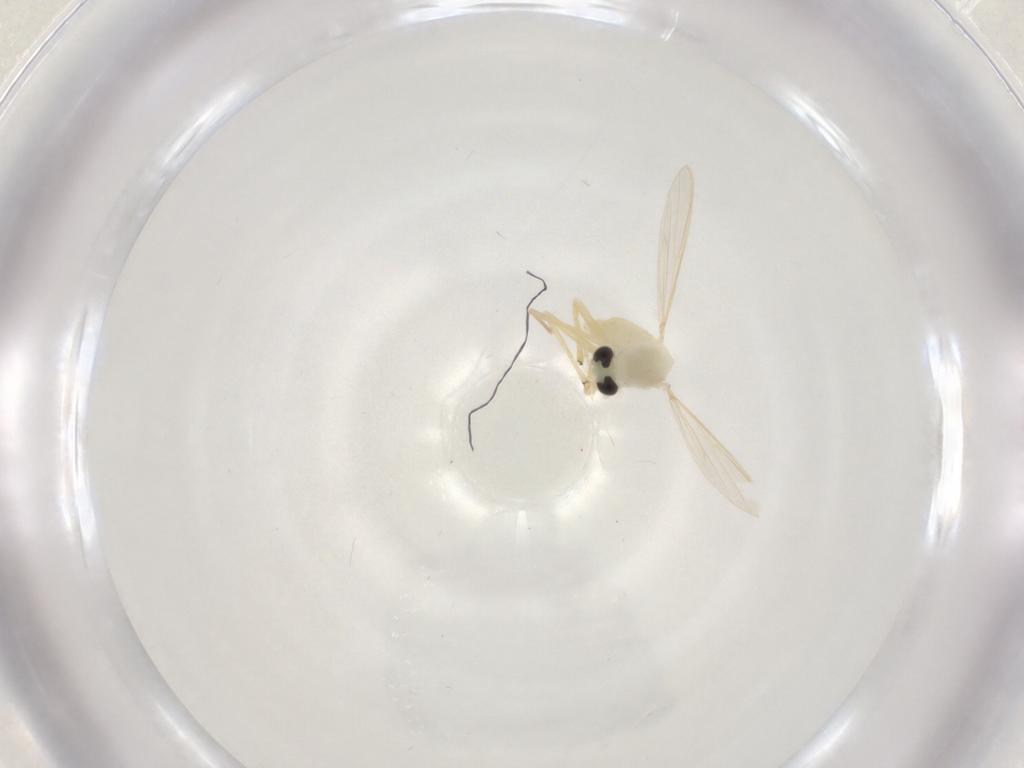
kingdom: Animalia
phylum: Arthropoda
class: Insecta
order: Diptera
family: Chironomidae
